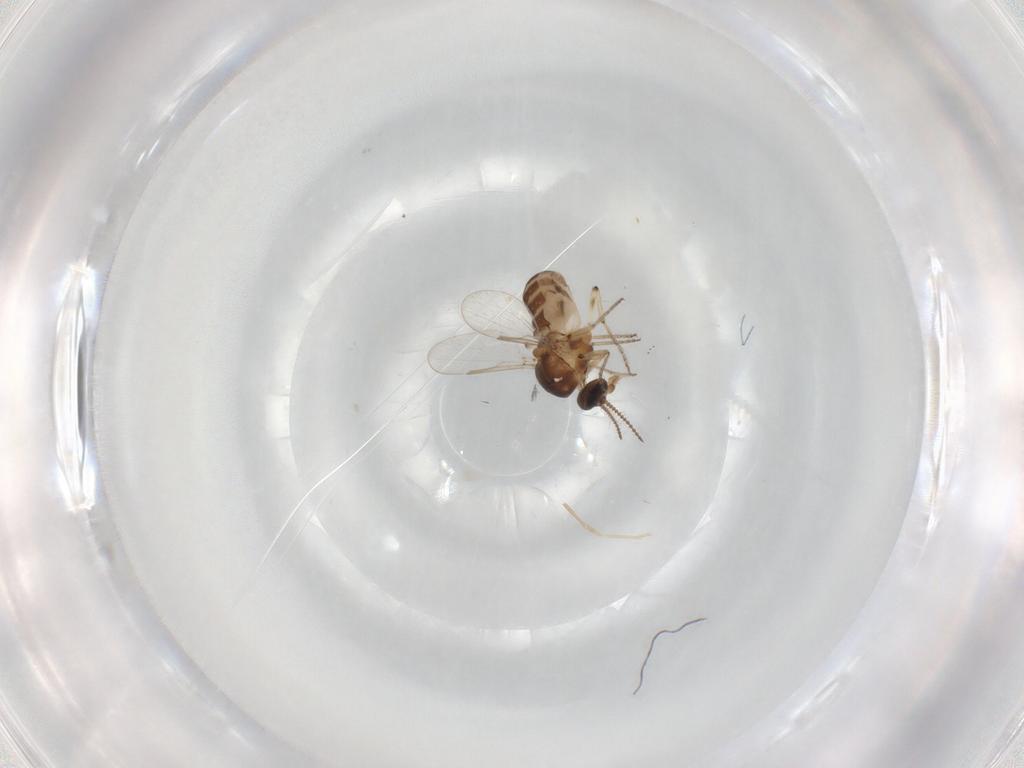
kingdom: Animalia
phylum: Arthropoda
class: Insecta
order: Diptera
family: Ceratopogonidae
